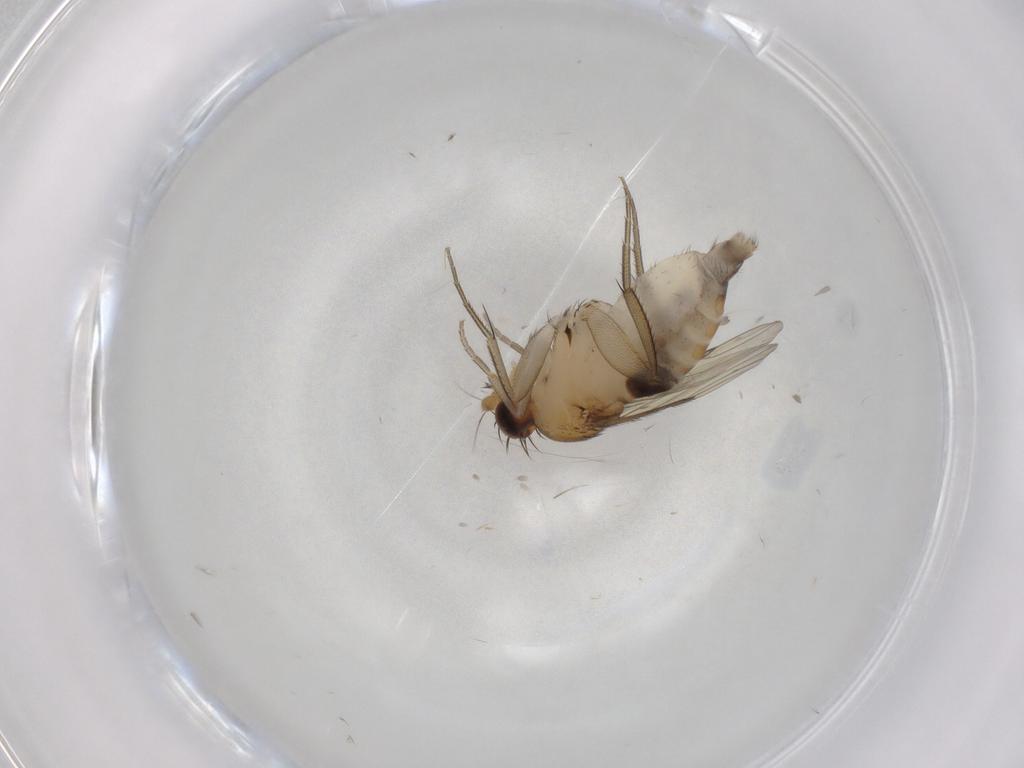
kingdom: Animalia
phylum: Arthropoda
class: Insecta
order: Diptera
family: Phoridae
